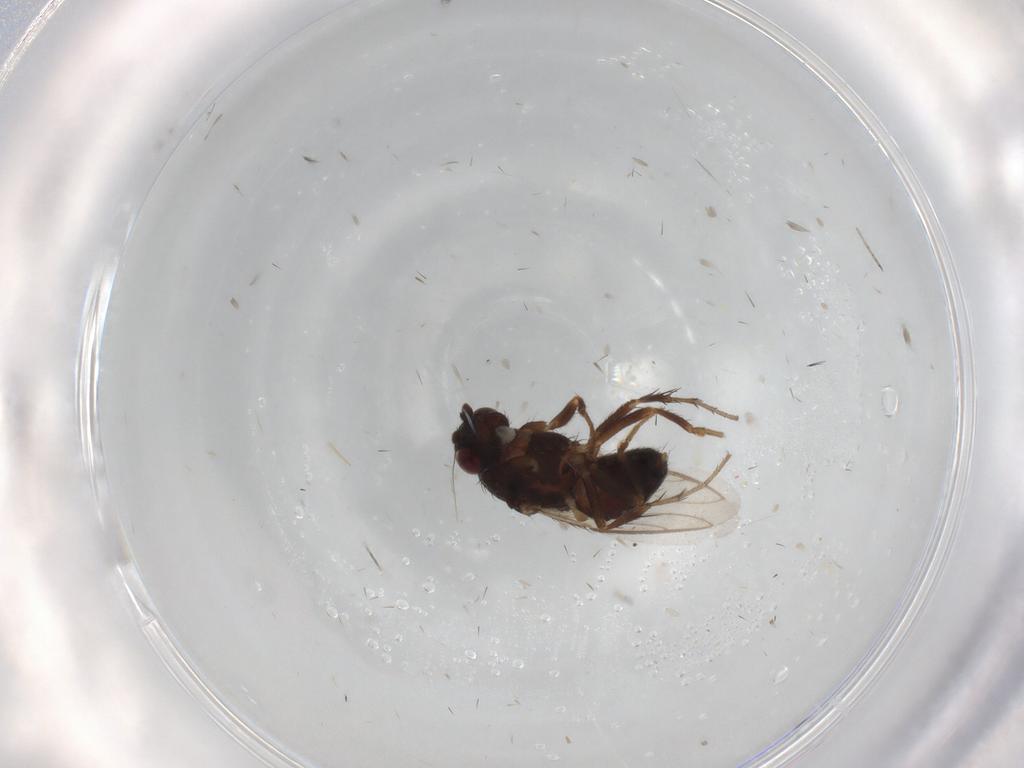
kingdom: Animalia
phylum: Arthropoda
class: Insecta
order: Diptera
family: Sphaeroceridae
